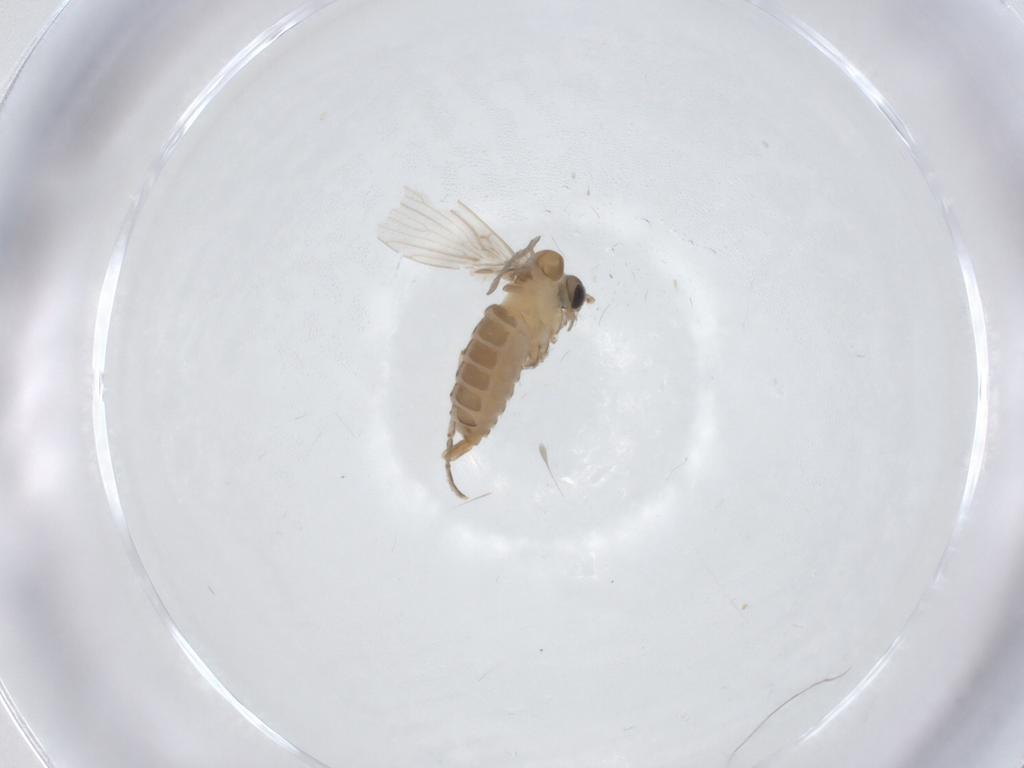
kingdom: Animalia
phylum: Arthropoda
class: Insecta
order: Diptera
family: Psychodidae
